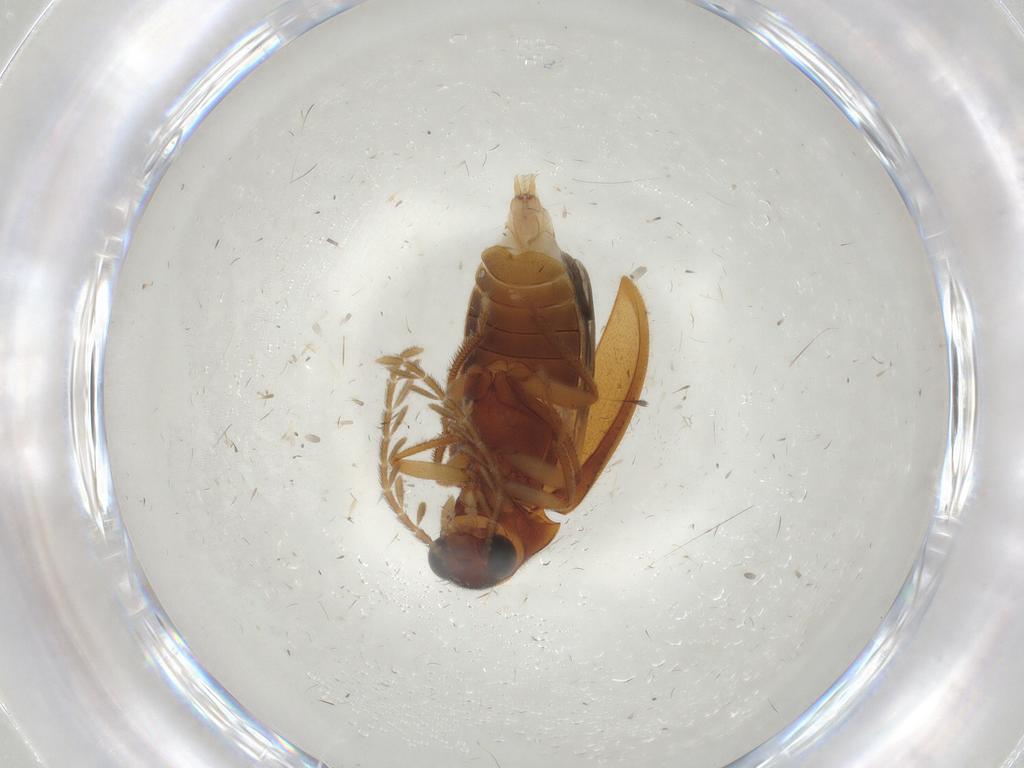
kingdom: Animalia
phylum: Arthropoda
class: Insecta
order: Coleoptera
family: Ptilodactylidae
